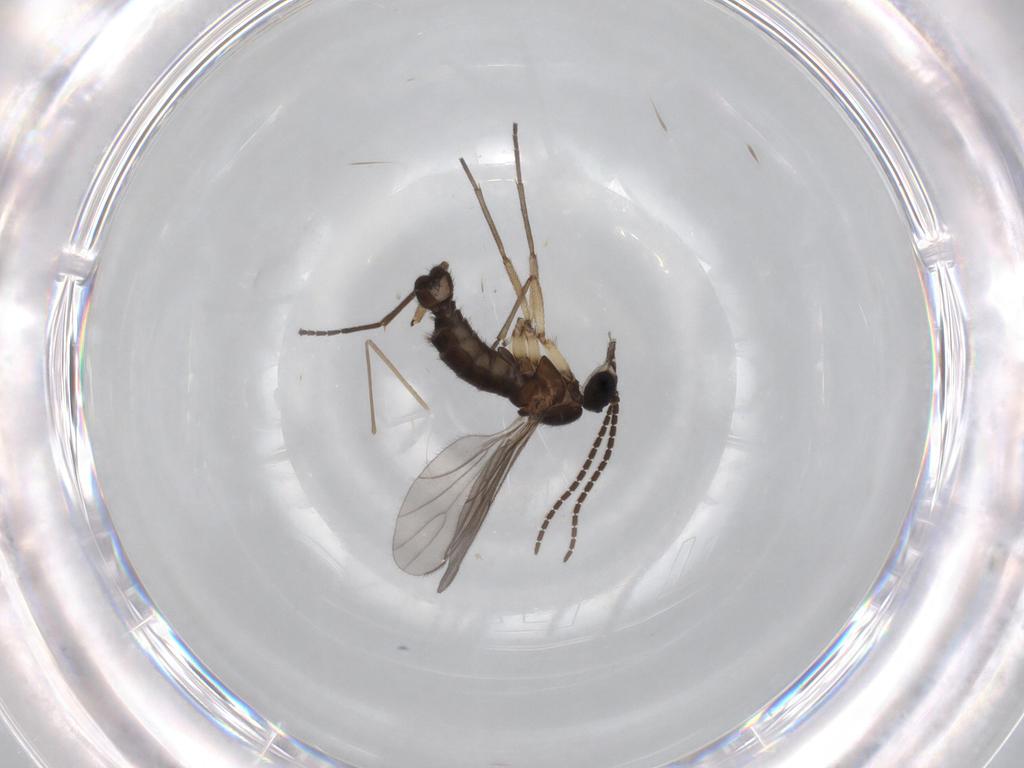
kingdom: Animalia
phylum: Arthropoda
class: Insecta
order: Diptera
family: Sciaridae
